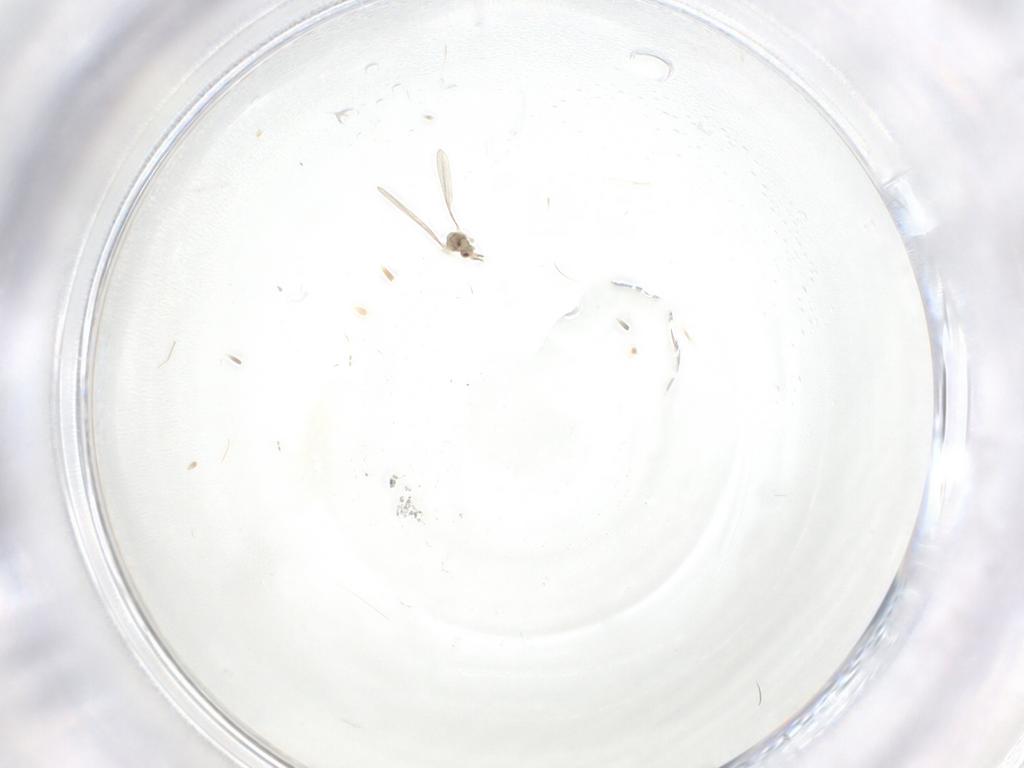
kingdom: Animalia
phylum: Arthropoda
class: Insecta
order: Diptera
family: Cecidomyiidae
